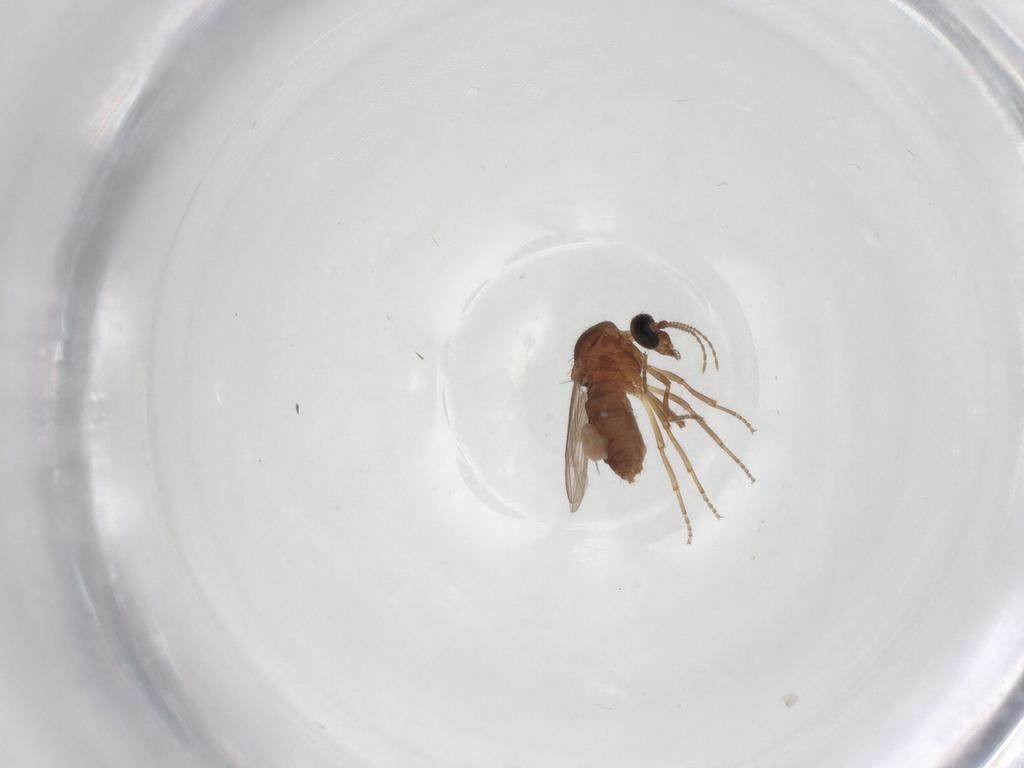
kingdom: Animalia
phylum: Arthropoda
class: Insecta
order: Diptera
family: Ceratopogonidae
